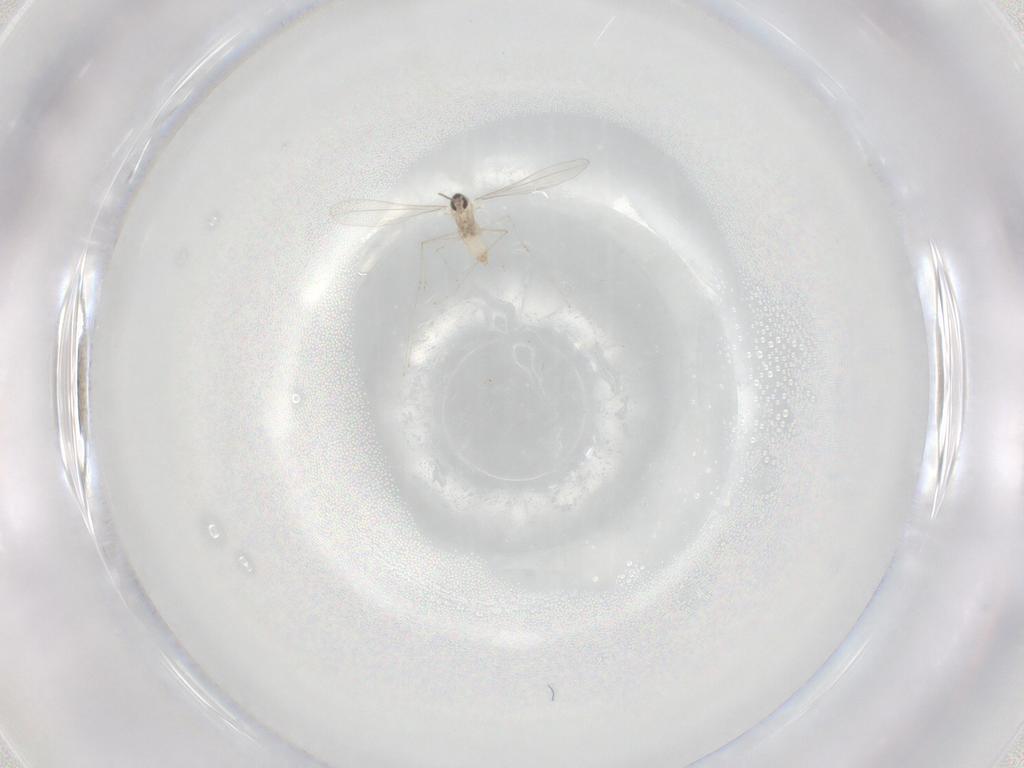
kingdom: Animalia
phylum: Arthropoda
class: Insecta
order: Diptera
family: Cecidomyiidae
